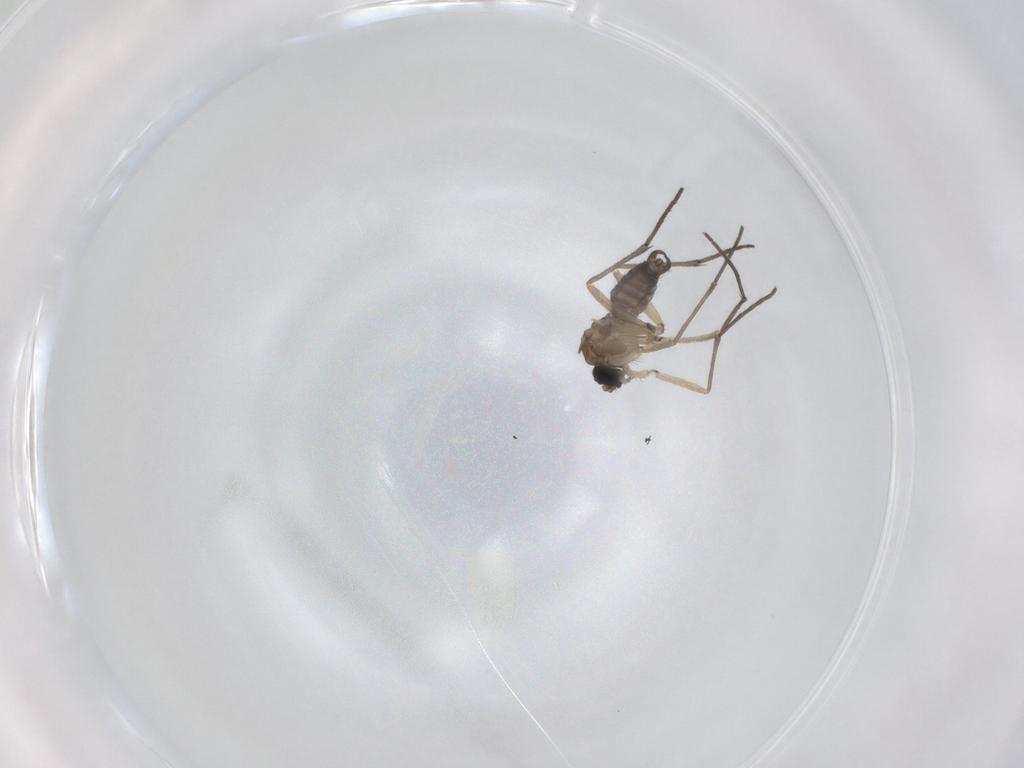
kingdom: Animalia
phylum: Arthropoda
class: Insecta
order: Diptera
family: Sciaridae
